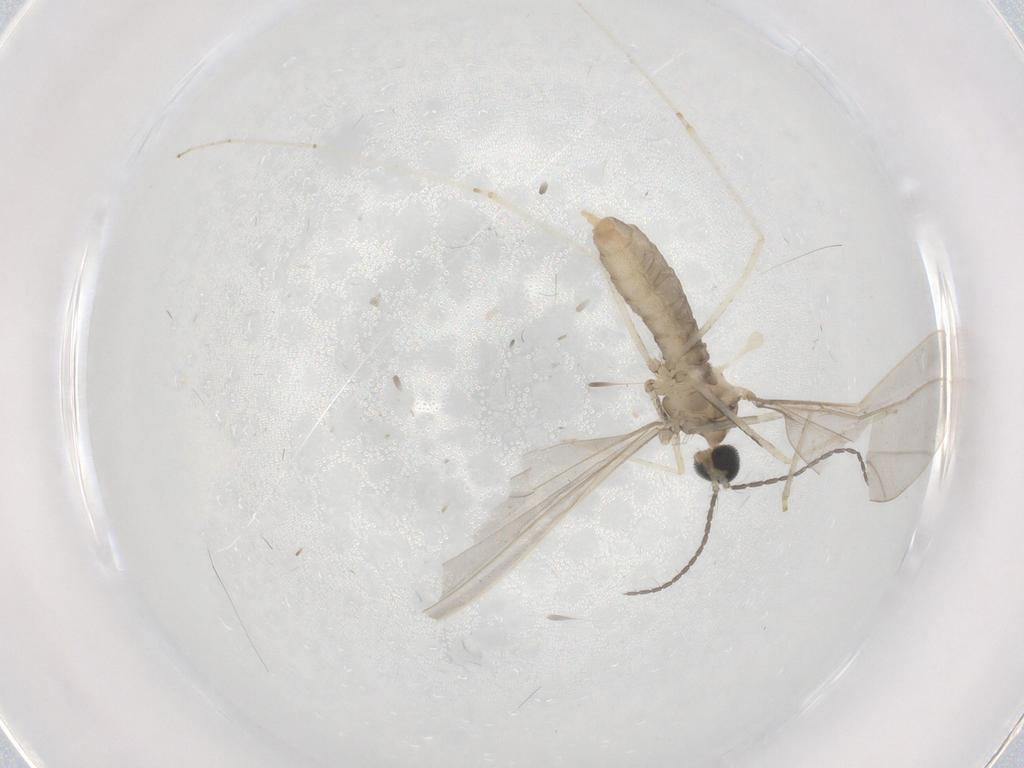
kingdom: Animalia
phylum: Arthropoda
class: Insecta
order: Diptera
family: Cecidomyiidae
